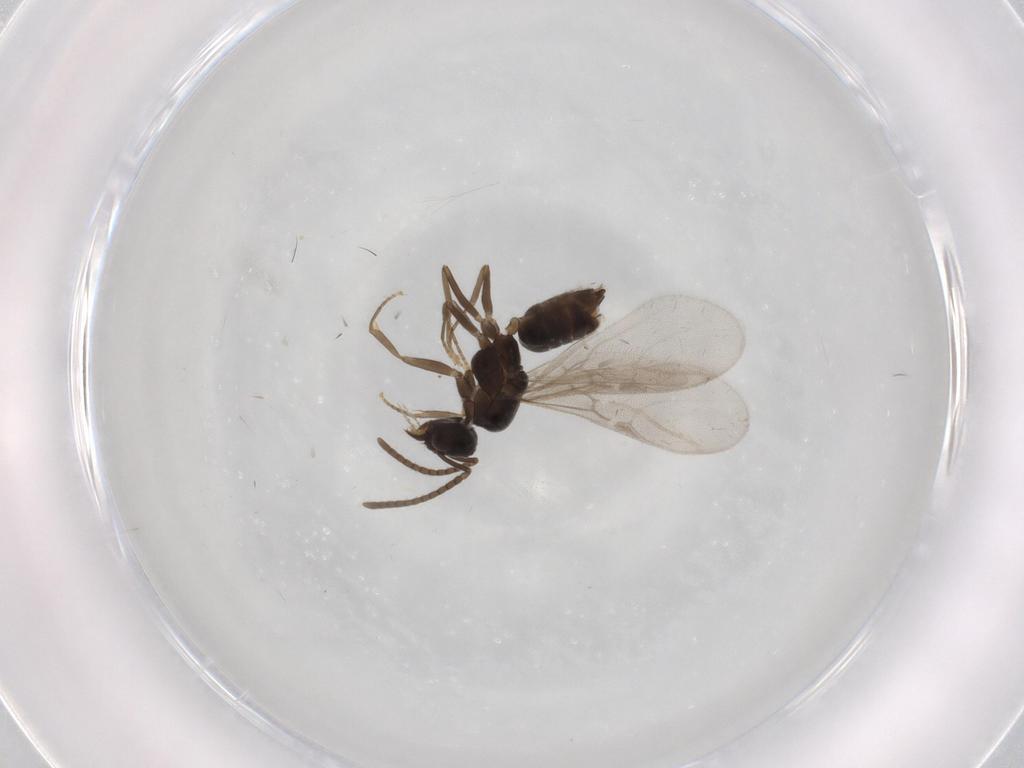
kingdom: Animalia
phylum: Arthropoda
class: Insecta
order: Hymenoptera
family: Formicidae
